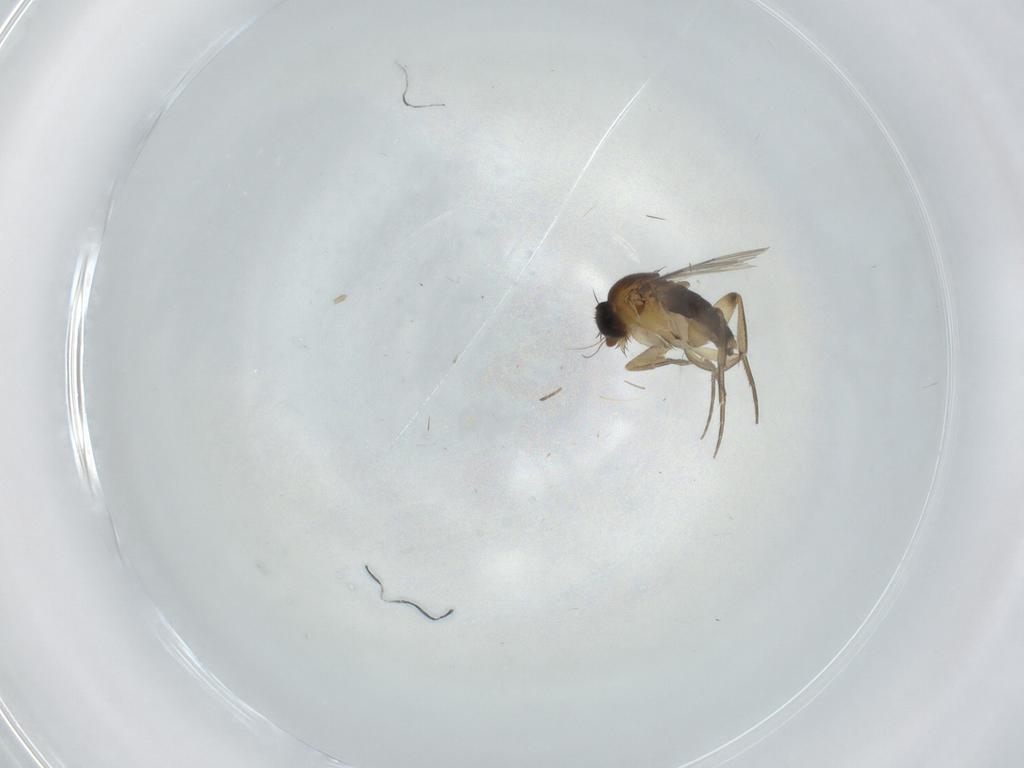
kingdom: Animalia
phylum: Arthropoda
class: Insecta
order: Diptera
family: Phoridae
